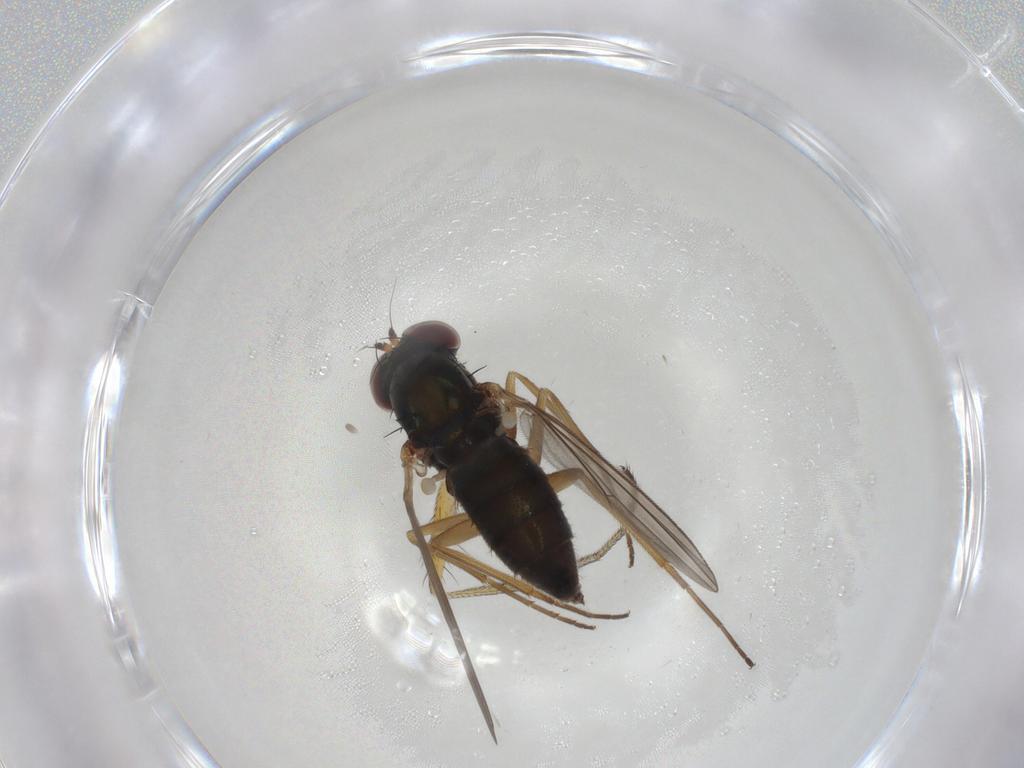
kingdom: Animalia
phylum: Arthropoda
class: Insecta
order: Diptera
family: Dolichopodidae
